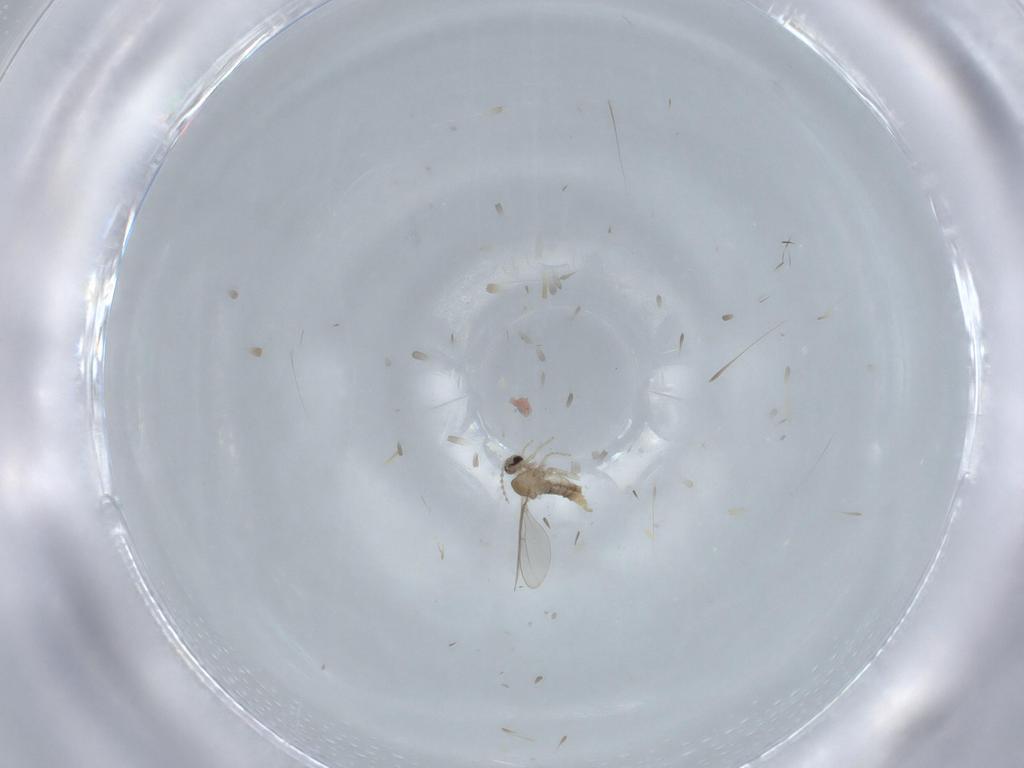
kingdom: Animalia
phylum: Arthropoda
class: Insecta
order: Diptera
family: Cecidomyiidae
